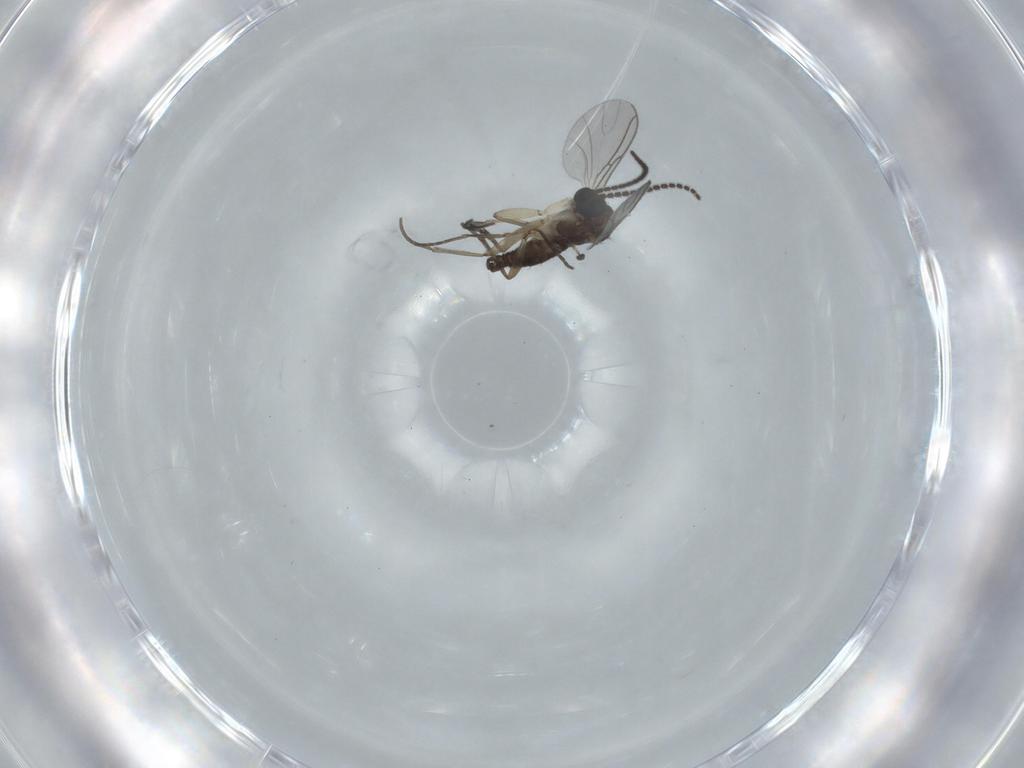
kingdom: Animalia
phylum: Arthropoda
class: Insecta
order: Diptera
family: Sciaridae
